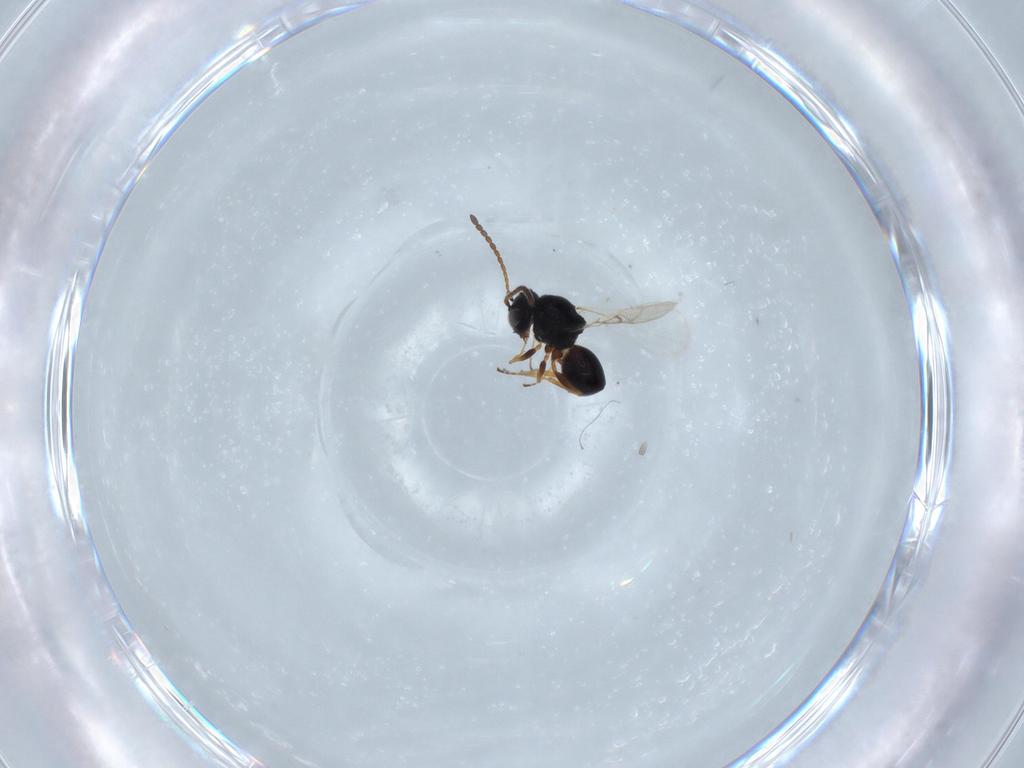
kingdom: Animalia
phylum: Arthropoda
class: Insecta
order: Hymenoptera
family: Figitidae
